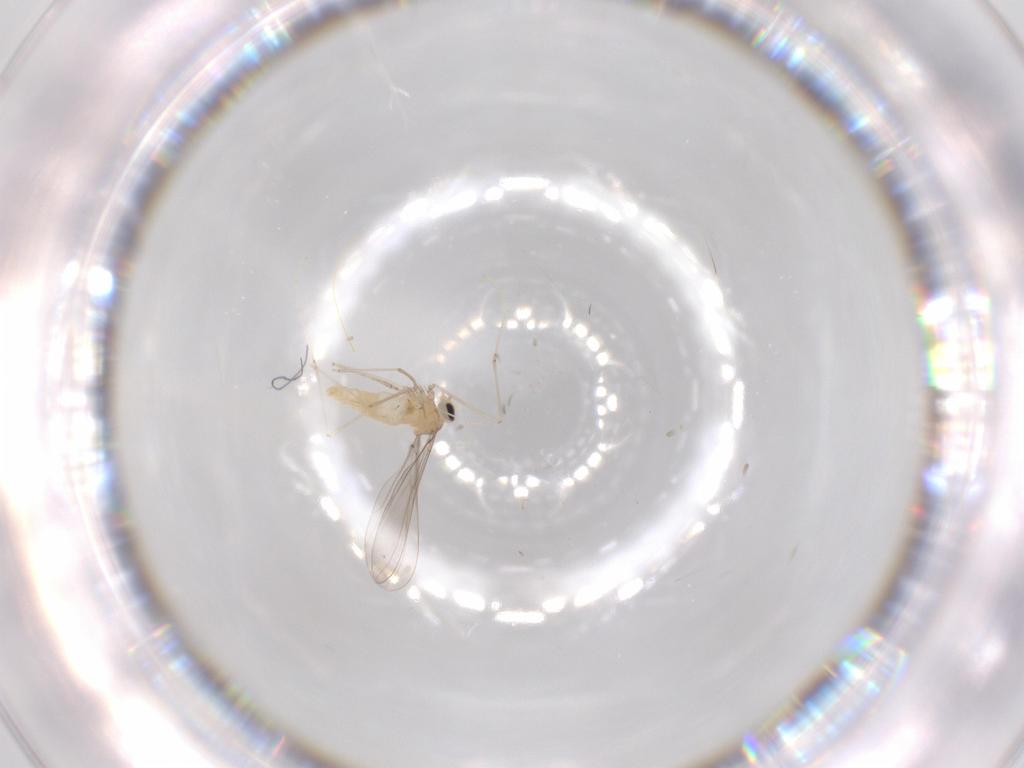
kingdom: Animalia
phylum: Arthropoda
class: Insecta
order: Diptera
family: Cecidomyiidae
